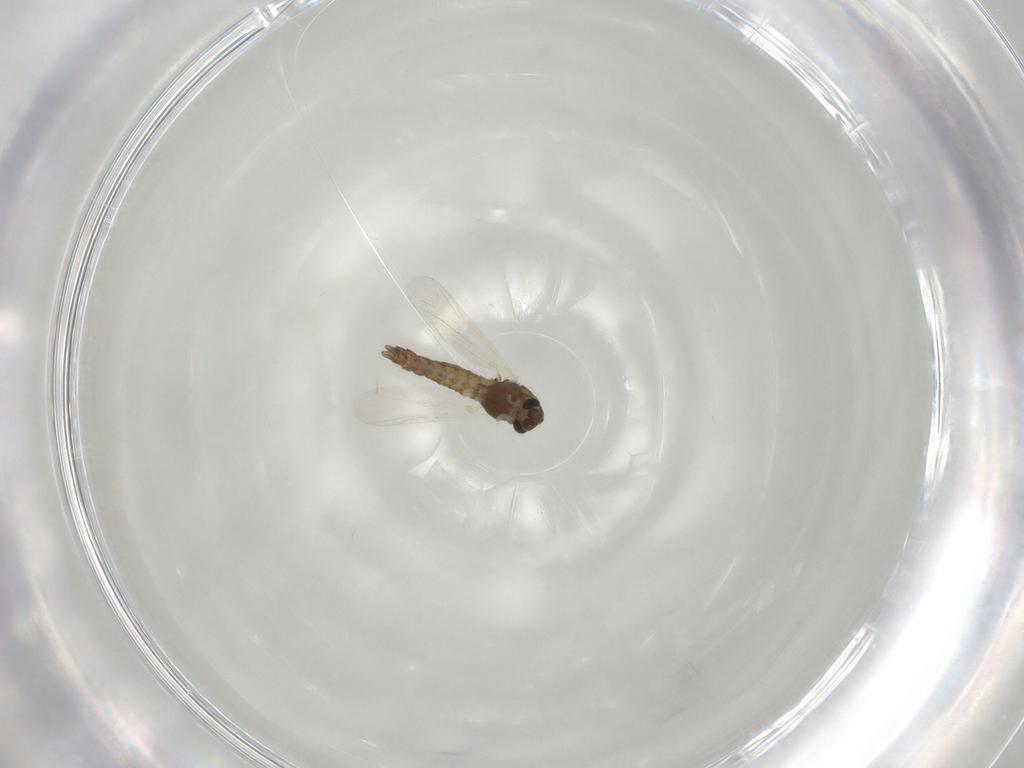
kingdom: Animalia
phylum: Arthropoda
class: Insecta
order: Diptera
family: Chironomidae
